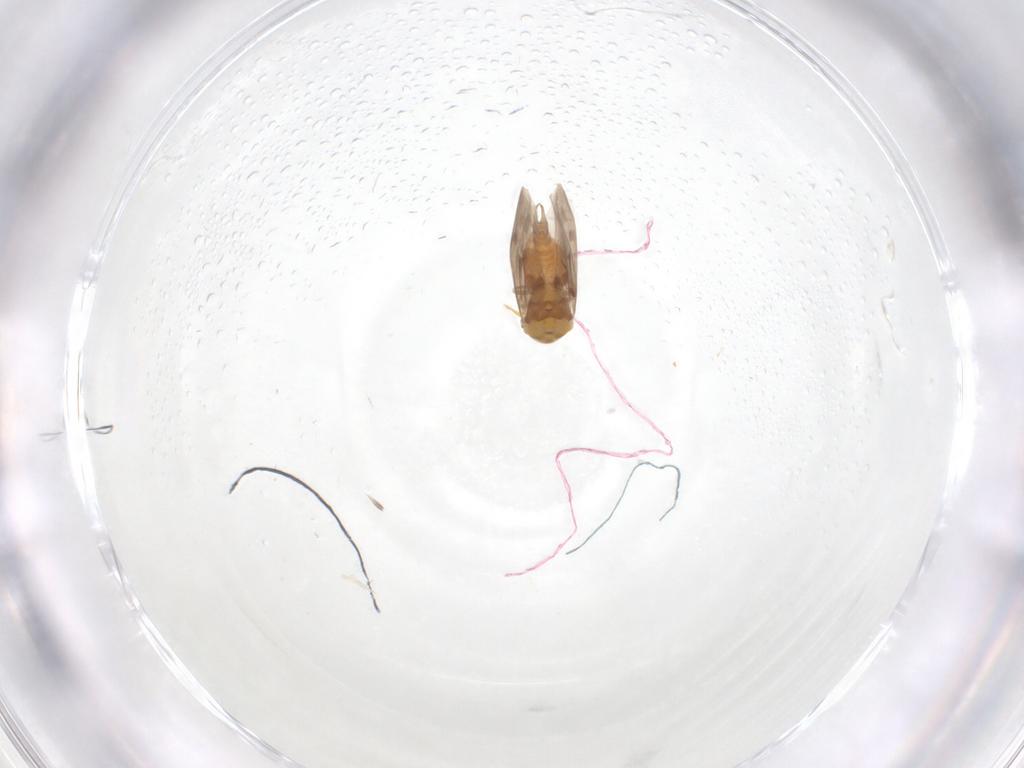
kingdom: Animalia
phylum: Arthropoda
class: Insecta
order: Hemiptera
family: Aleyrodidae
